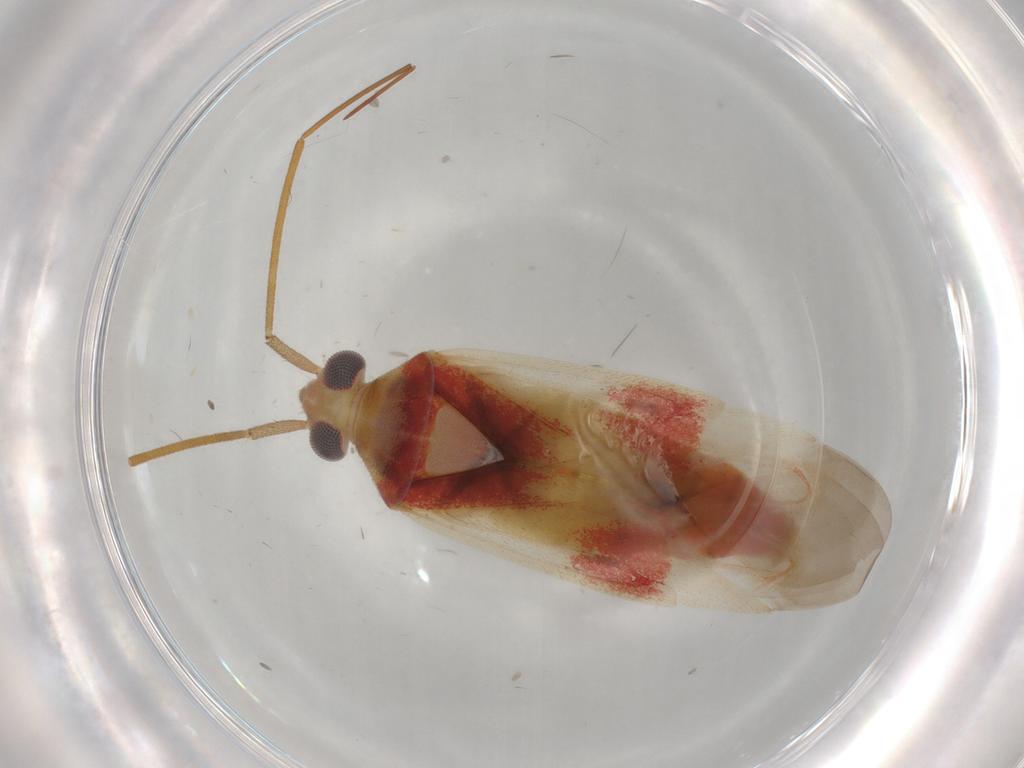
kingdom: Animalia
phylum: Arthropoda
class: Insecta
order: Hemiptera
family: Miridae
